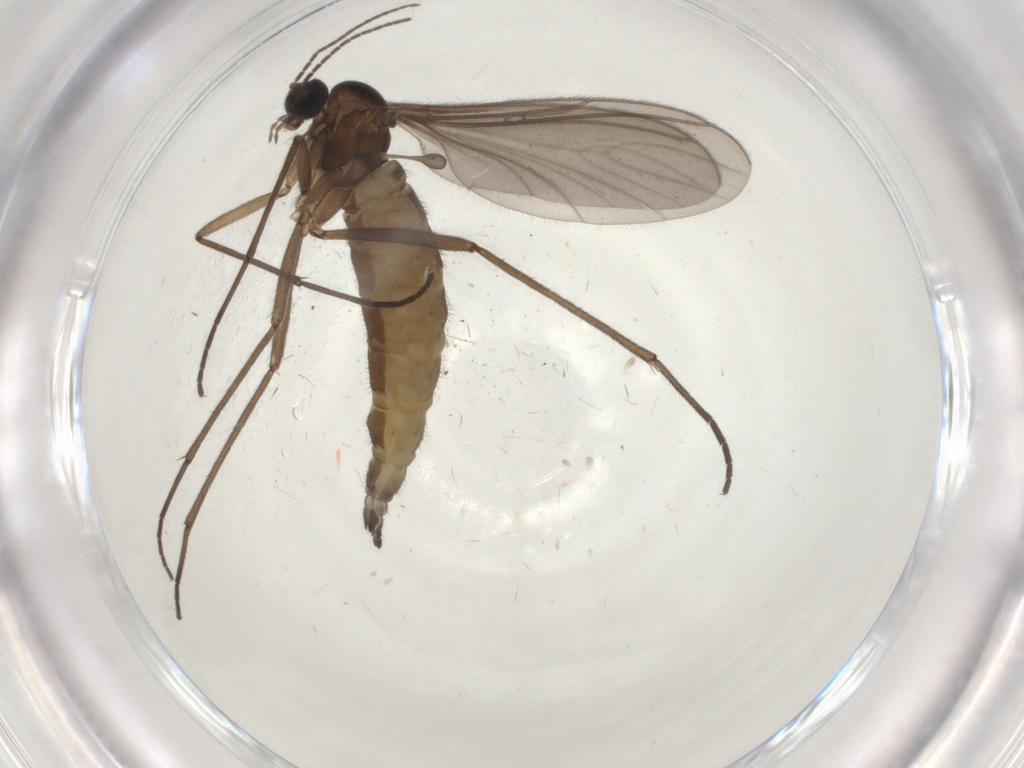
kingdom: Animalia
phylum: Arthropoda
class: Insecta
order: Diptera
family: Sciaridae
